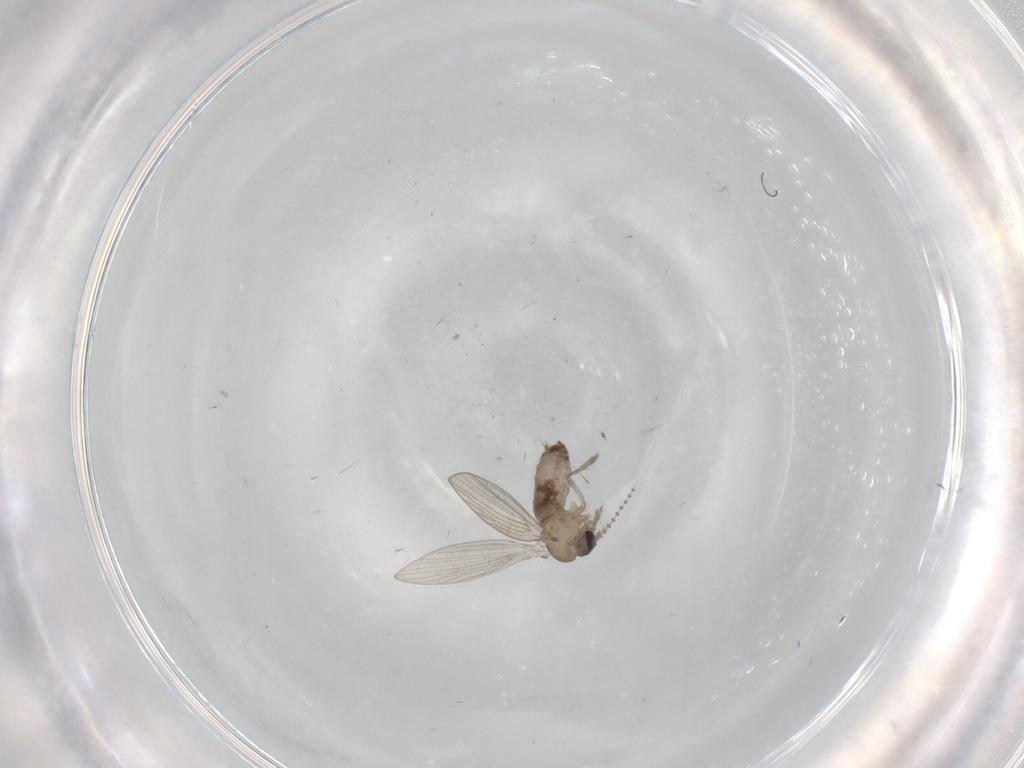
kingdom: Animalia
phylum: Arthropoda
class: Insecta
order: Diptera
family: Psychodidae
